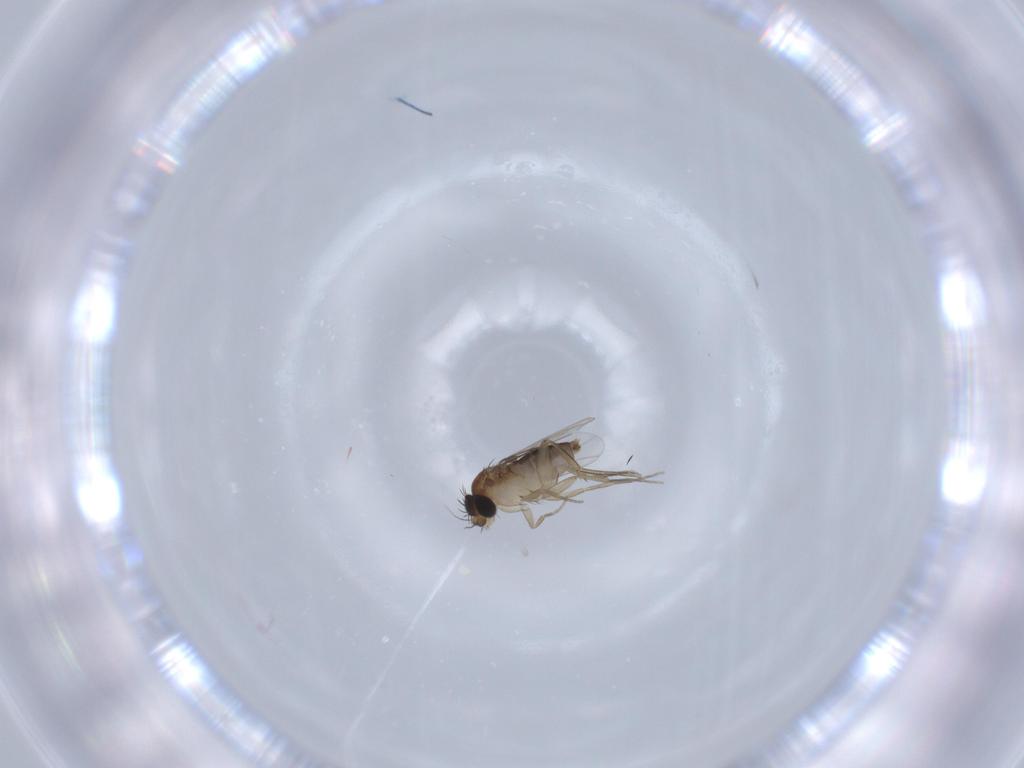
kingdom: Animalia
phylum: Arthropoda
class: Insecta
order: Diptera
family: Phoridae
